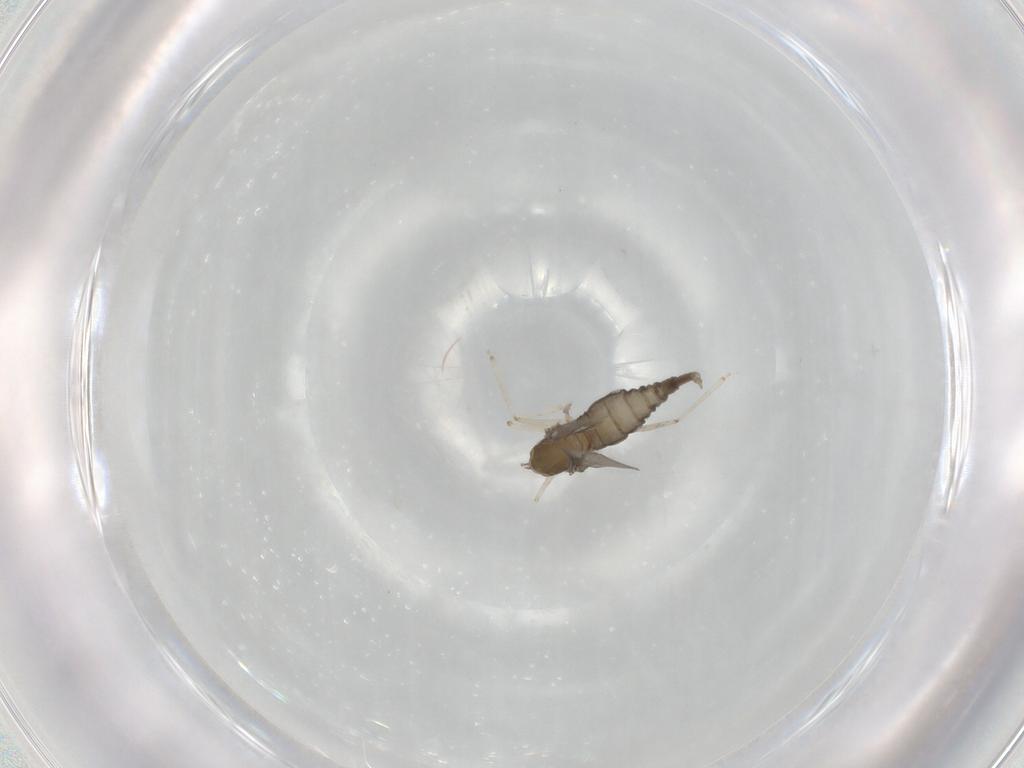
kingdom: Animalia
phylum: Arthropoda
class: Insecta
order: Diptera
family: Cecidomyiidae
